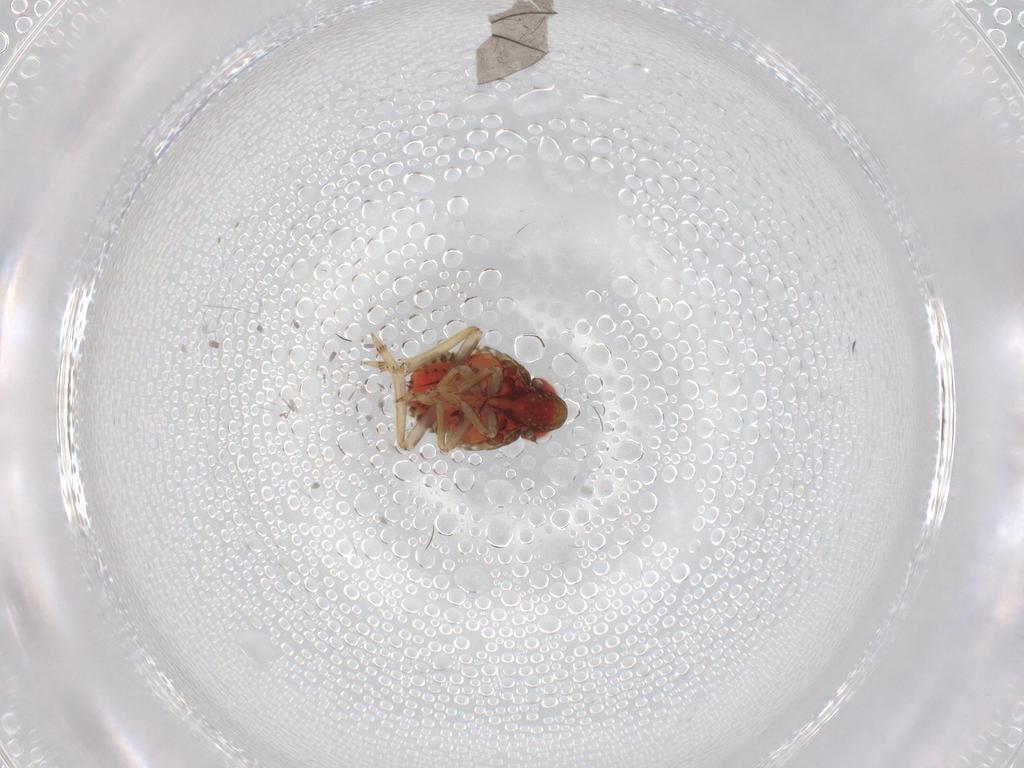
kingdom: Animalia
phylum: Arthropoda
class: Insecta
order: Hemiptera
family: Issidae
